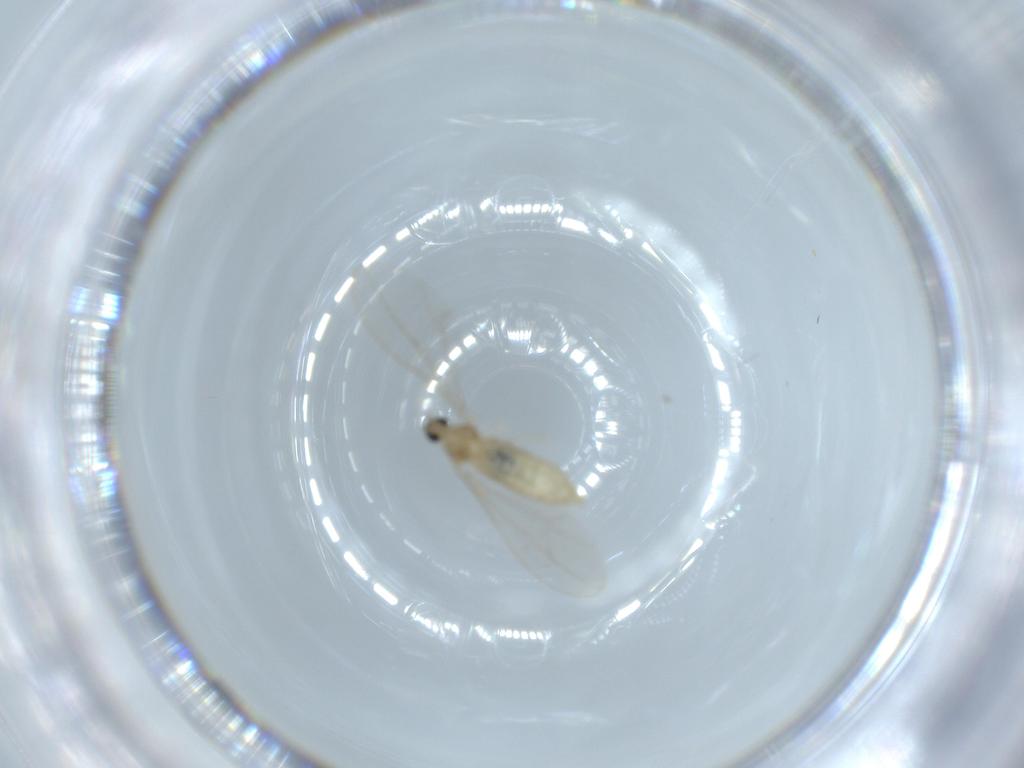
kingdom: Animalia
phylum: Arthropoda
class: Insecta
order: Diptera
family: Cecidomyiidae
